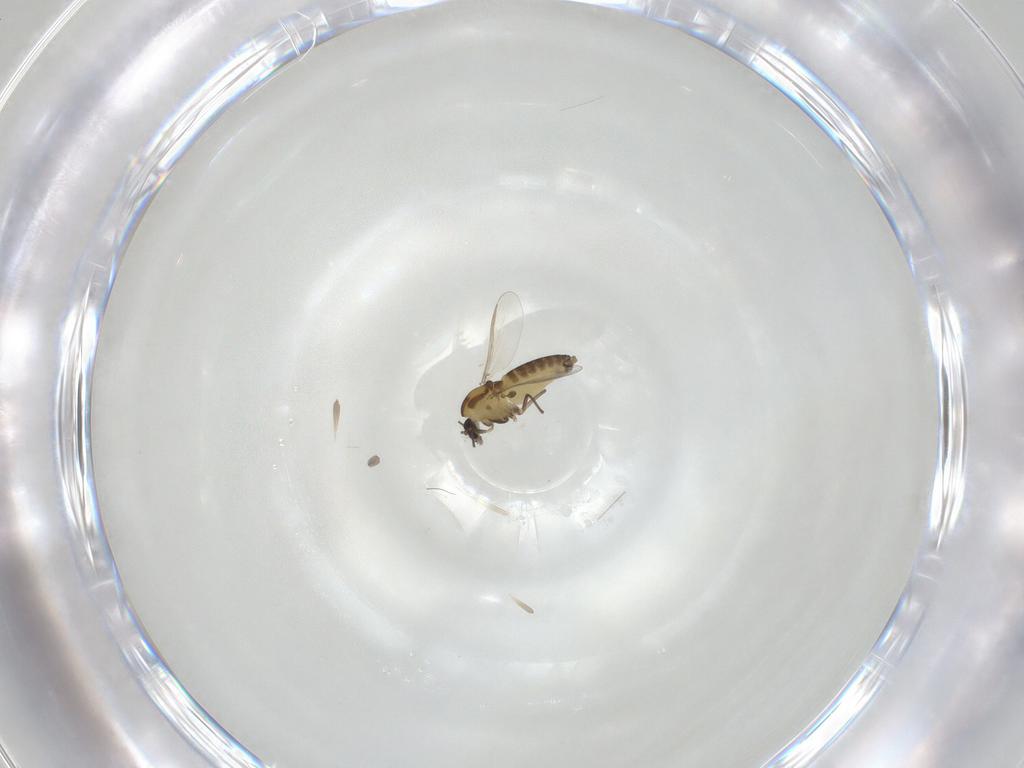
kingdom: Animalia
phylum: Arthropoda
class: Insecta
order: Diptera
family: Chironomidae
